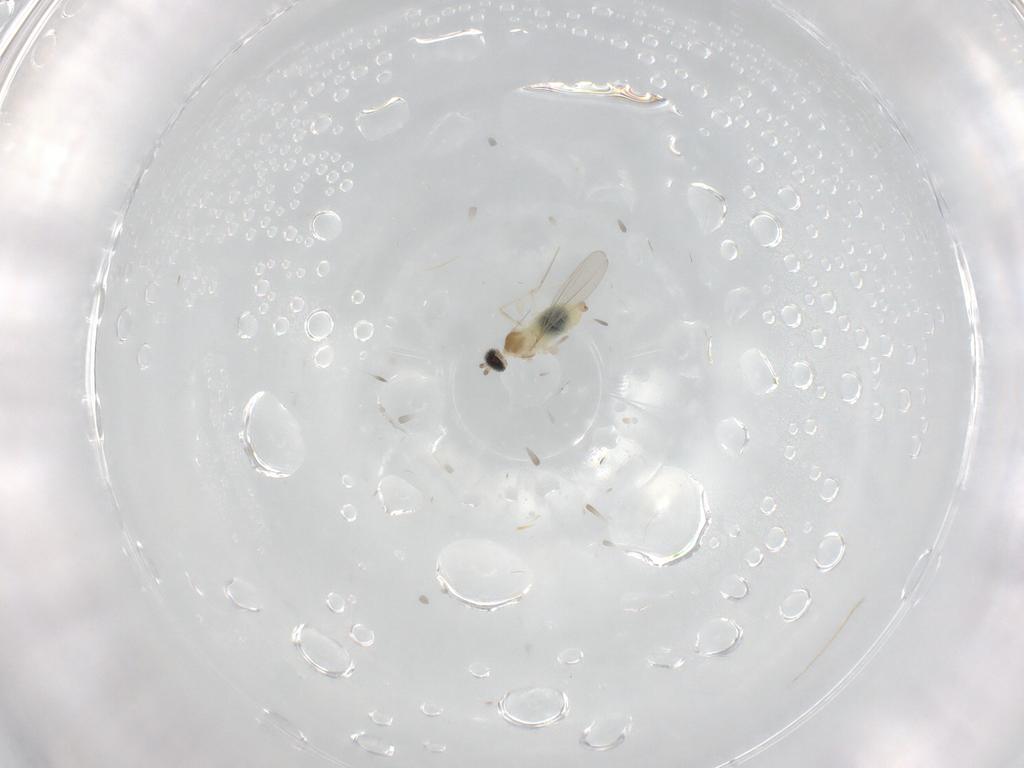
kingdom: Animalia
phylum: Arthropoda
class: Insecta
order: Diptera
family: Cecidomyiidae
